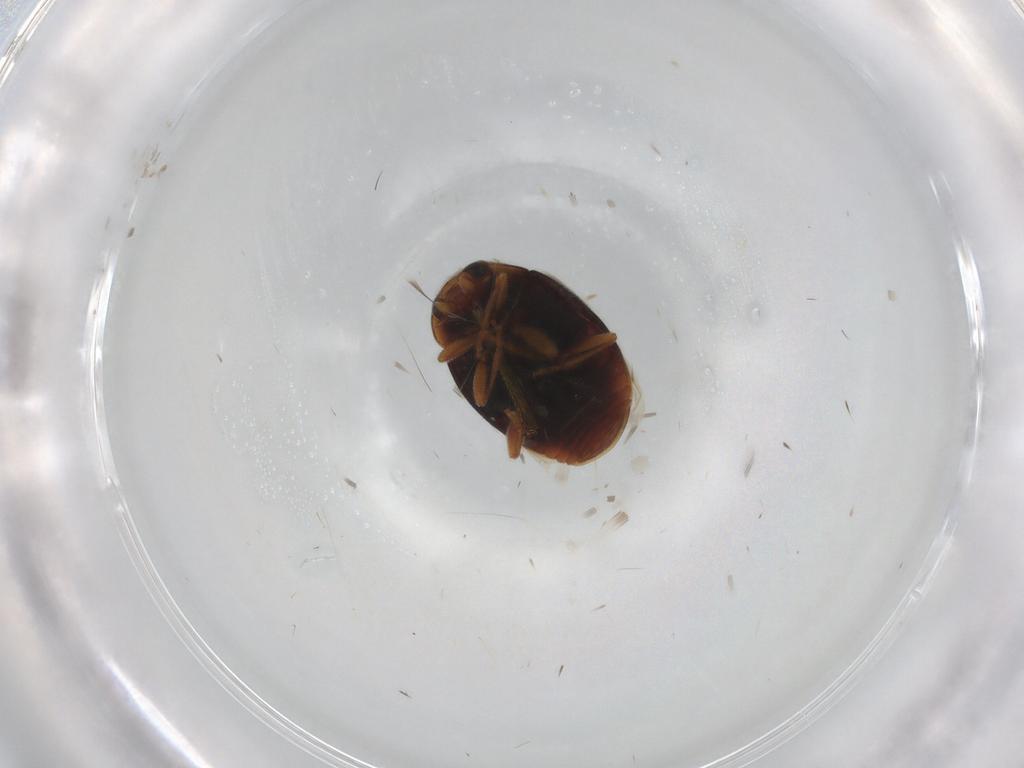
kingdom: Animalia
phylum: Arthropoda
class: Insecta
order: Coleoptera
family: Coccinellidae
